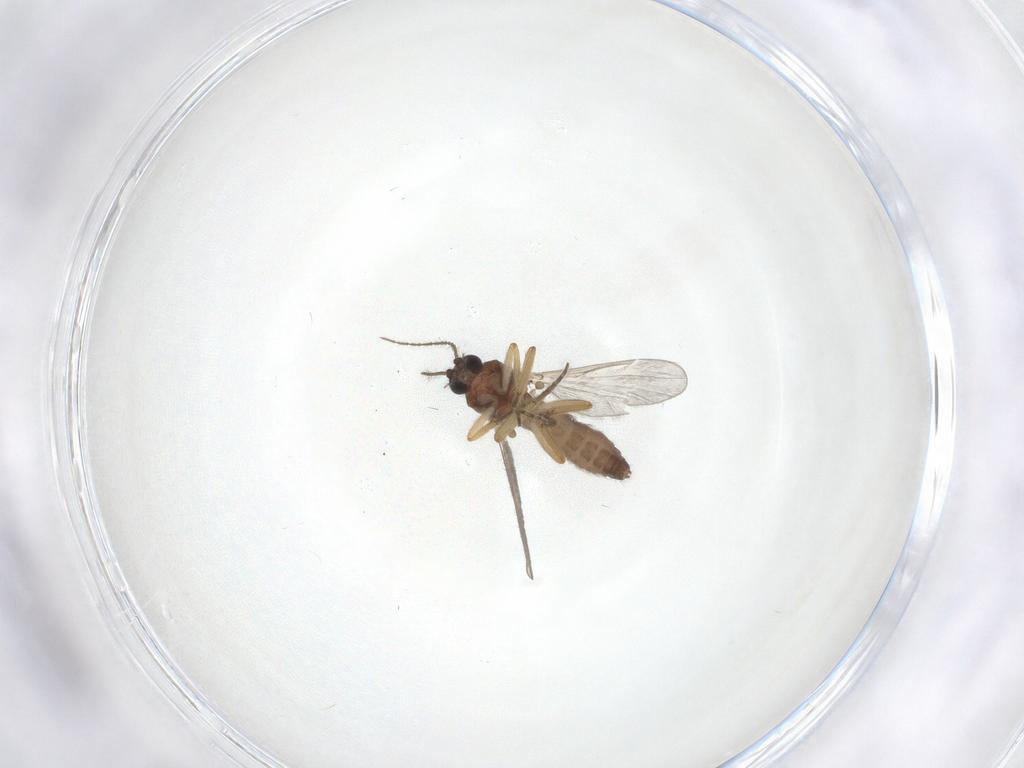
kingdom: Animalia
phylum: Arthropoda
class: Insecta
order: Diptera
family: Ceratopogonidae
